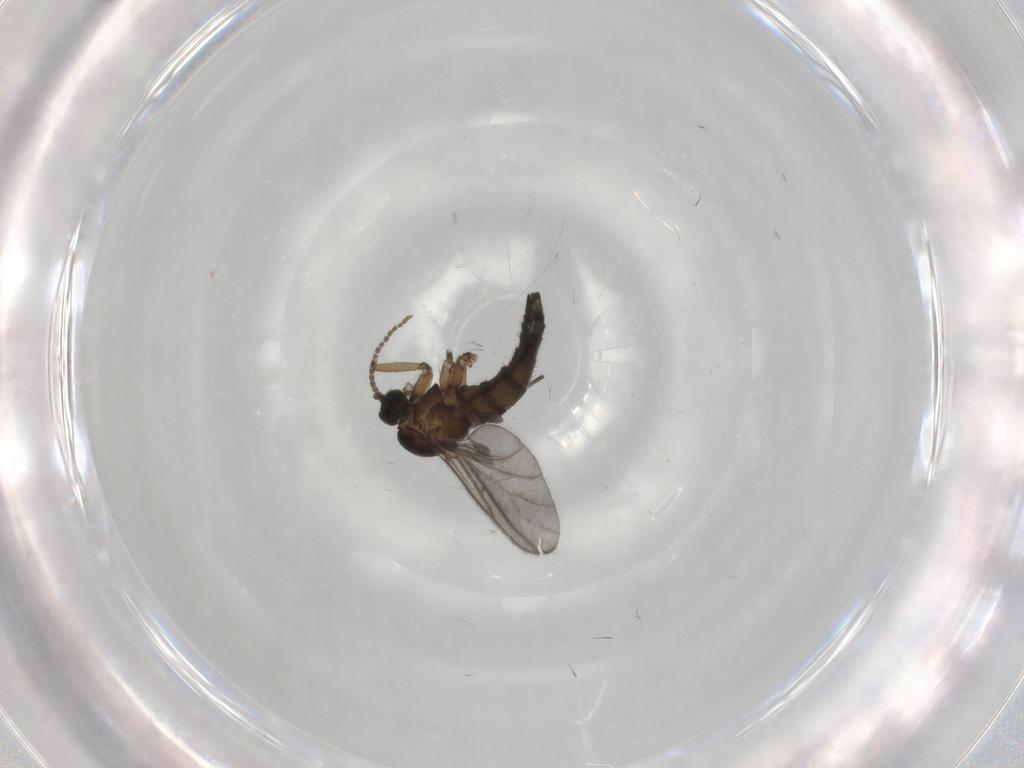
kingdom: Animalia
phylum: Arthropoda
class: Insecta
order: Diptera
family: Sciaridae
